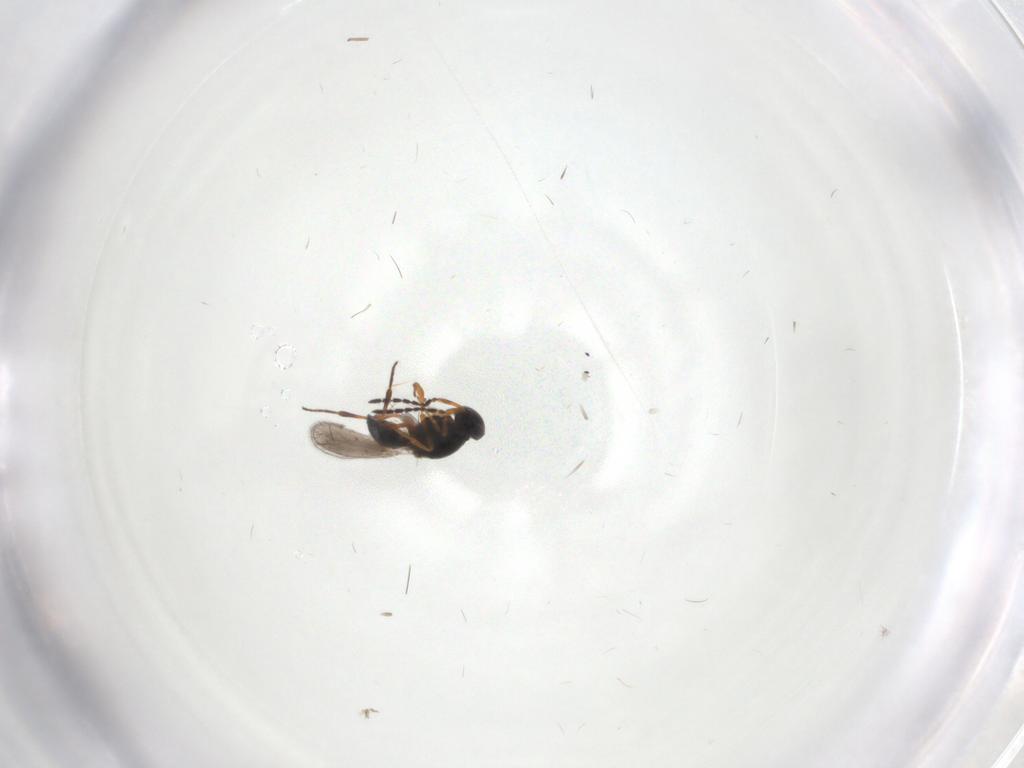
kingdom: Animalia
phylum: Arthropoda
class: Insecta
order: Hymenoptera
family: Platygastridae
